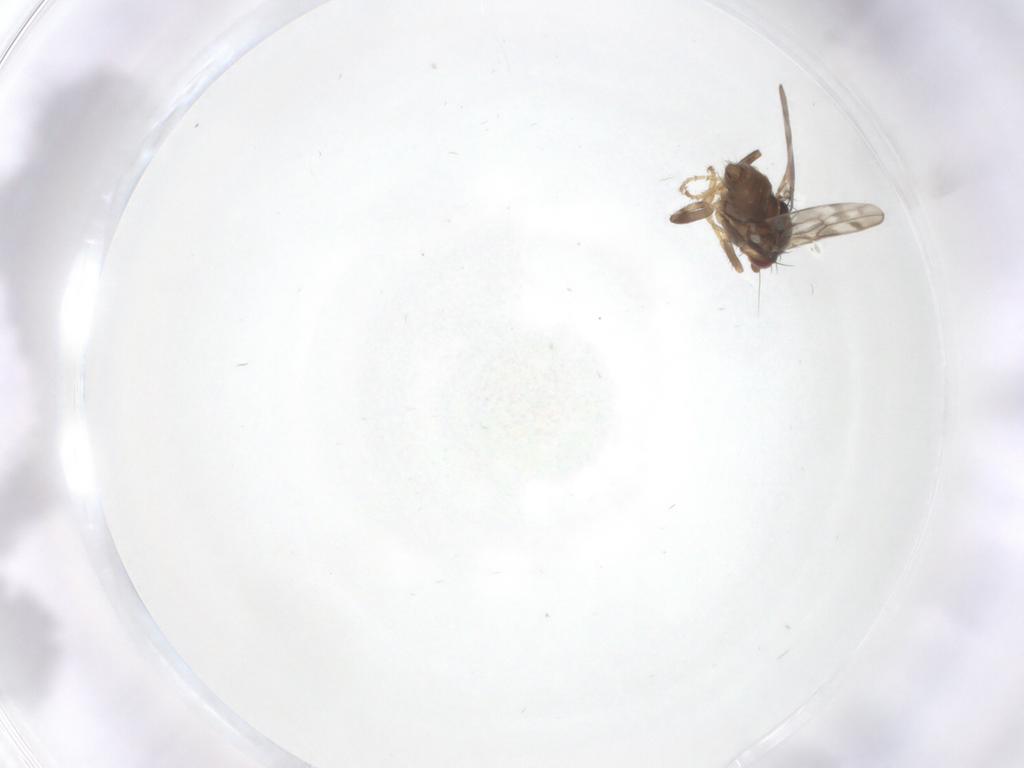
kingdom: Animalia
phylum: Arthropoda
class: Insecta
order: Diptera
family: Sphaeroceridae
